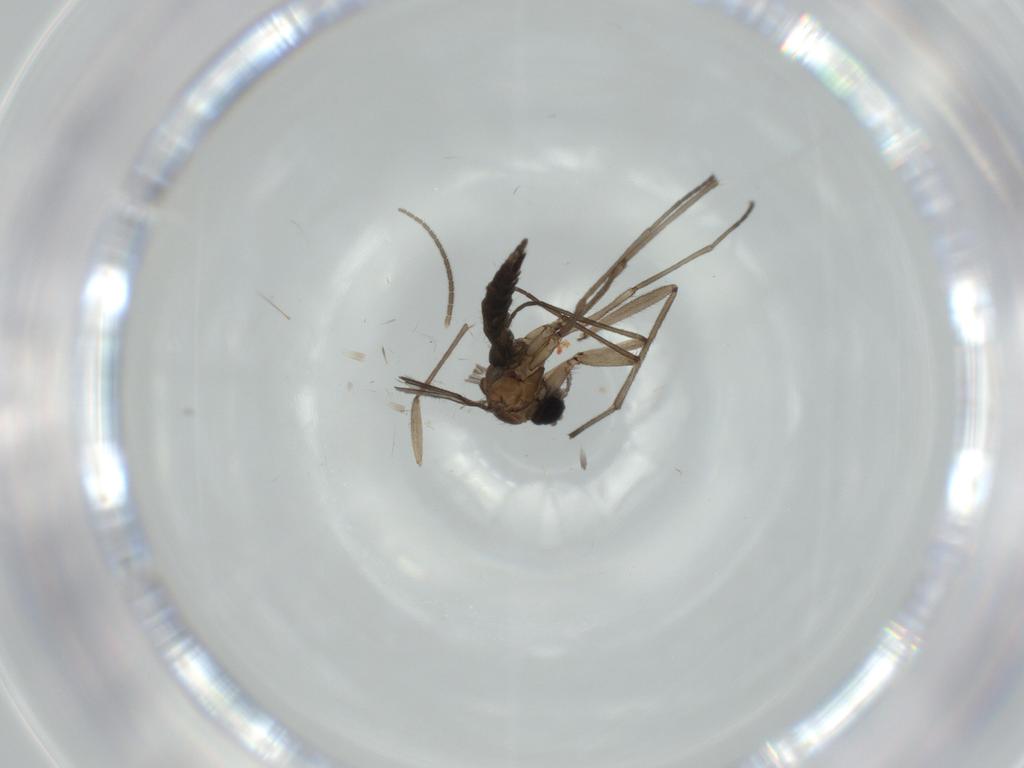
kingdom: Animalia
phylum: Arthropoda
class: Insecta
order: Diptera
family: Sciaridae
